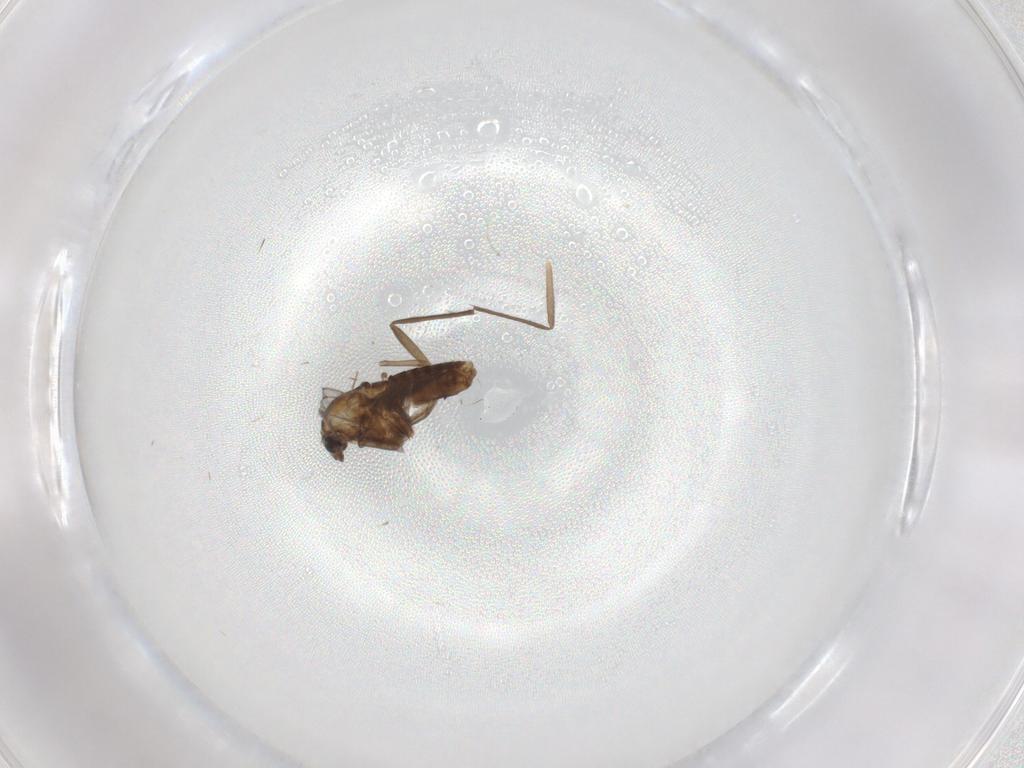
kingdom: Animalia
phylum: Arthropoda
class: Insecta
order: Diptera
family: Chironomidae
